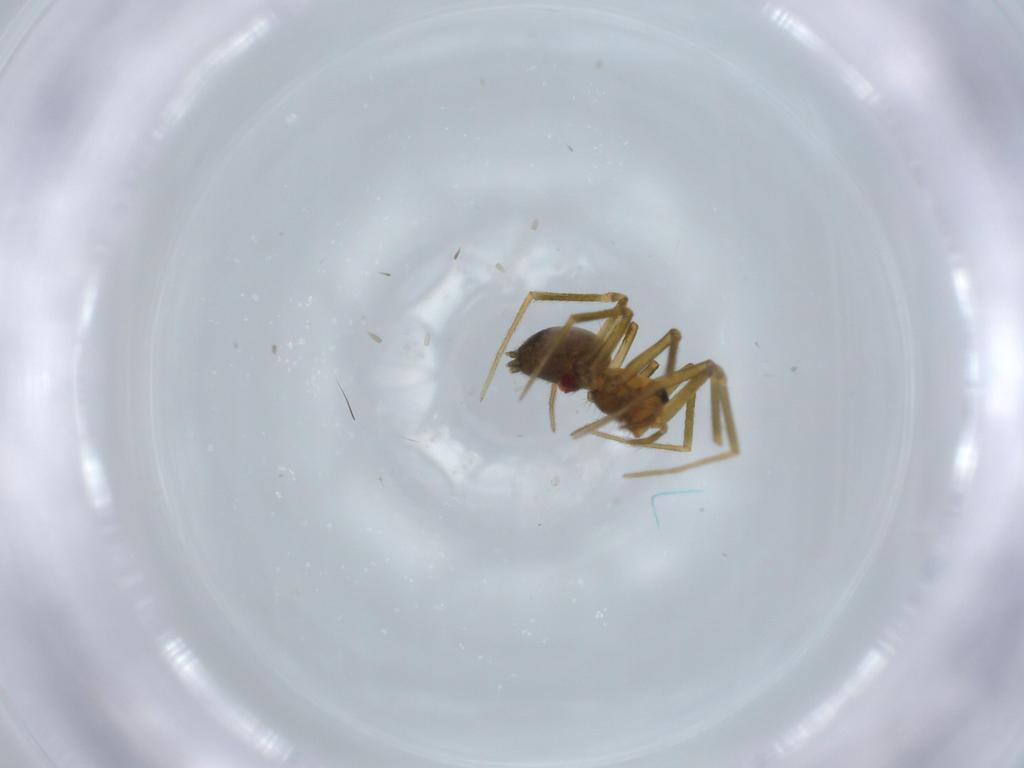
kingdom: Animalia
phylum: Arthropoda
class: Arachnida
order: Araneae
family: Linyphiidae
